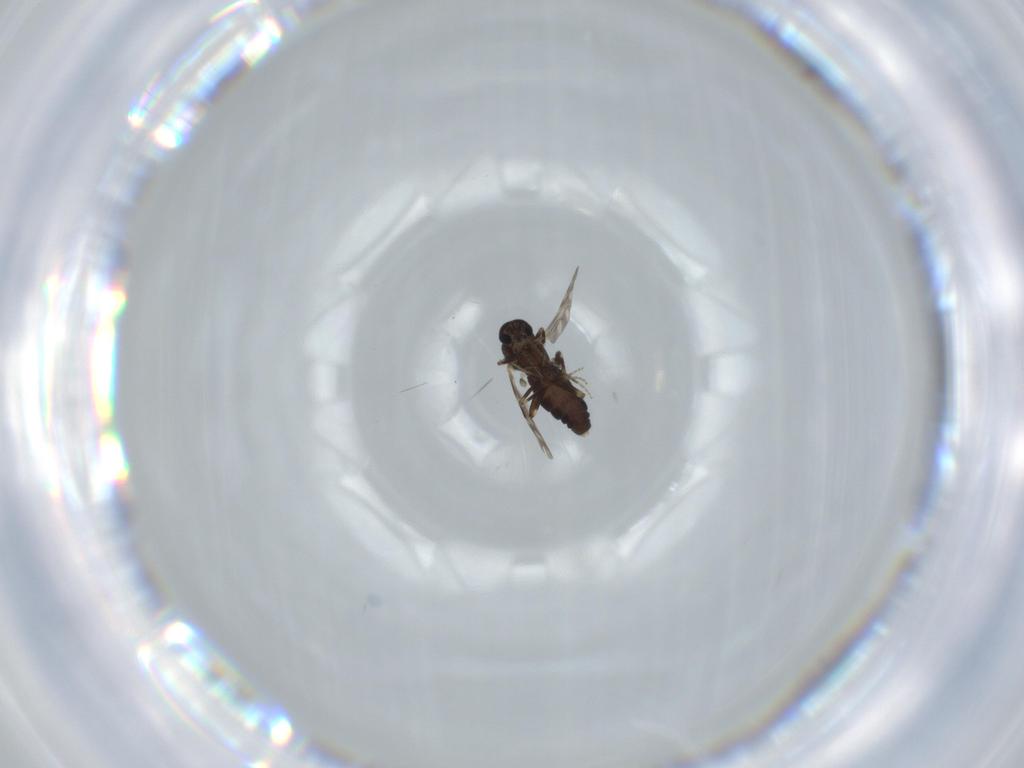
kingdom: Animalia
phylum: Arthropoda
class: Insecta
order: Diptera
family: Ceratopogonidae
